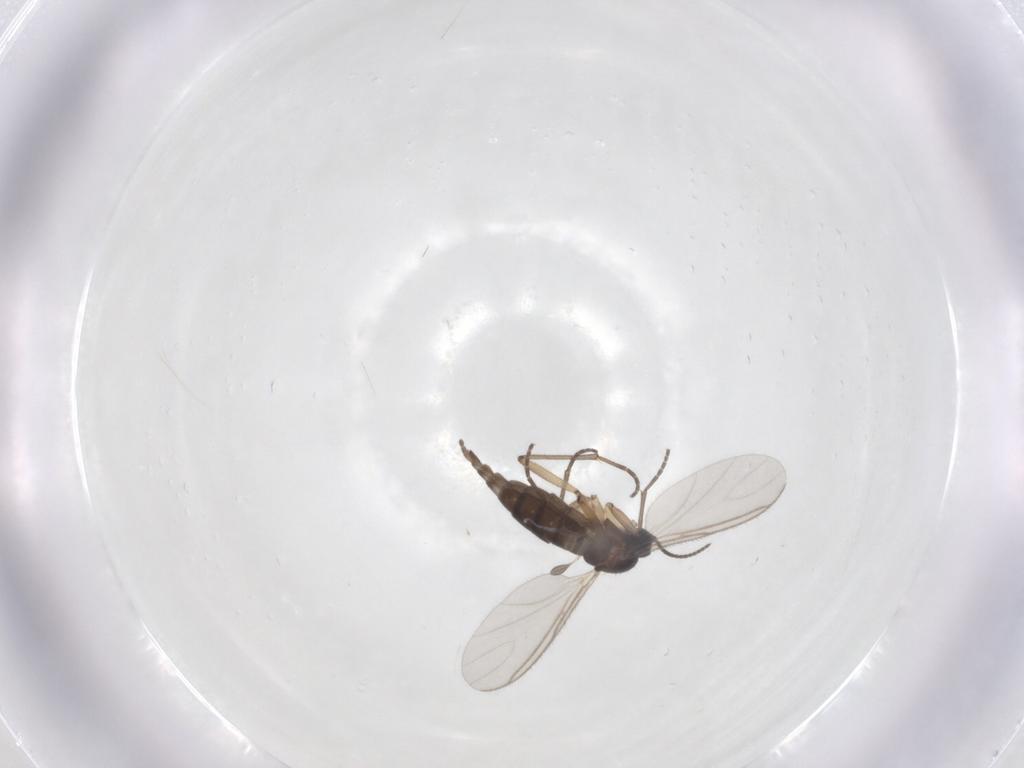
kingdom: Animalia
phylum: Arthropoda
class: Insecta
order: Diptera
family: Sciaridae
